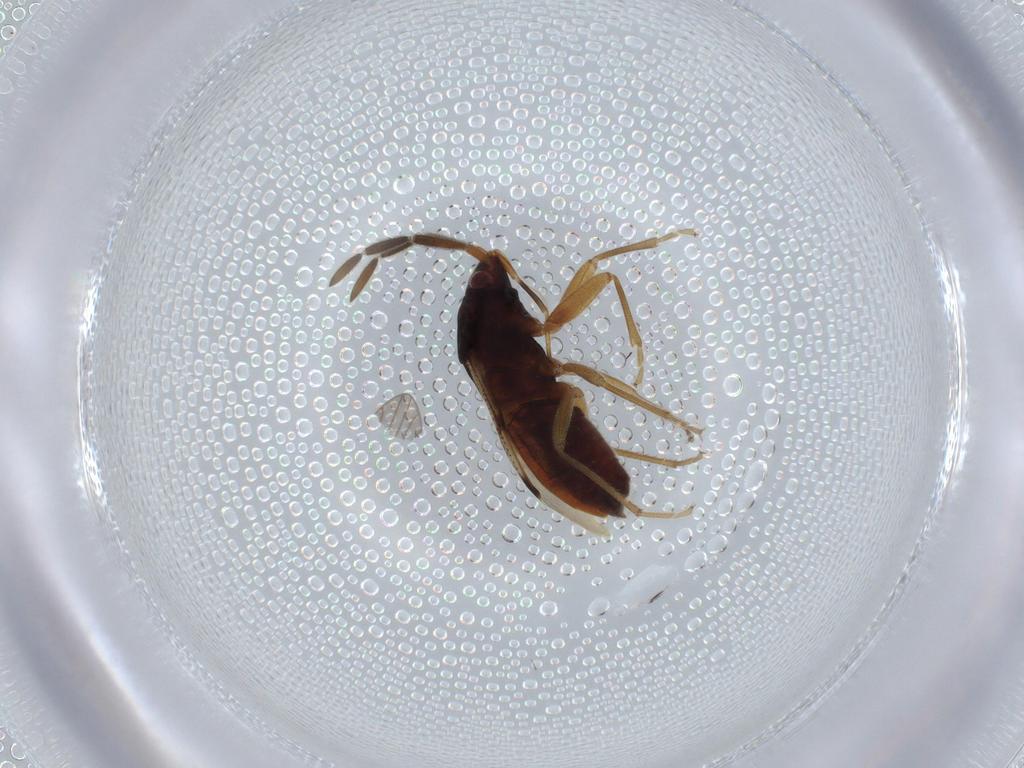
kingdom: Animalia
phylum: Arthropoda
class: Insecta
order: Hemiptera
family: Rhyparochromidae
